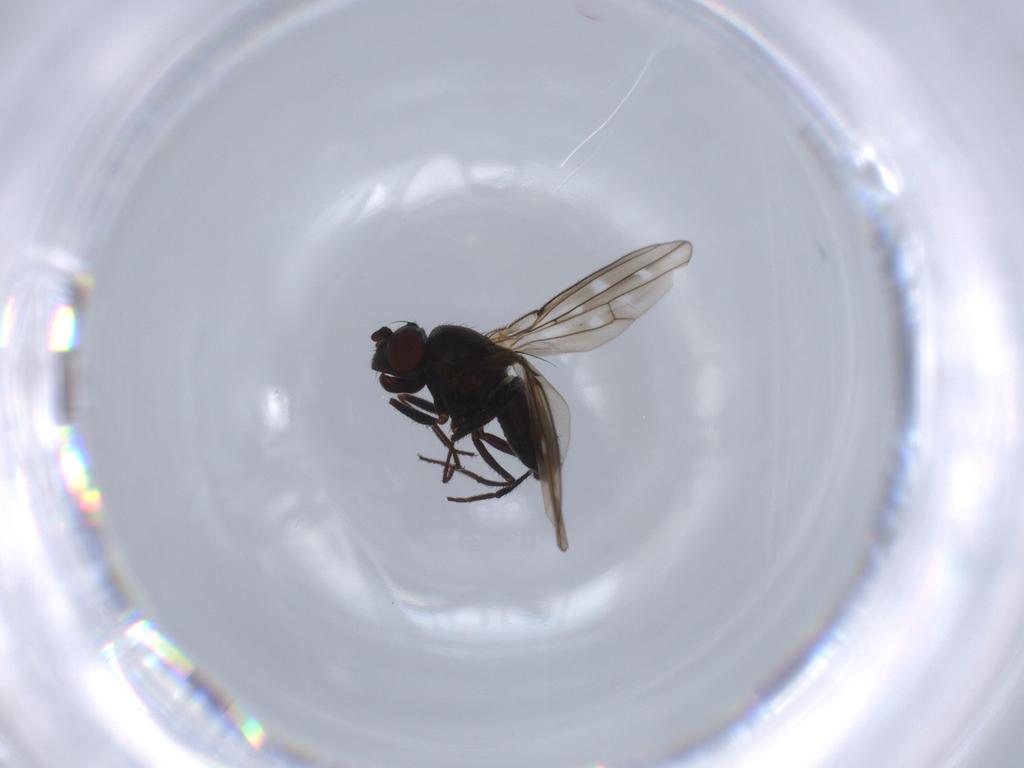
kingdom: Animalia
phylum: Arthropoda
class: Insecta
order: Diptera
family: Ephydridae
